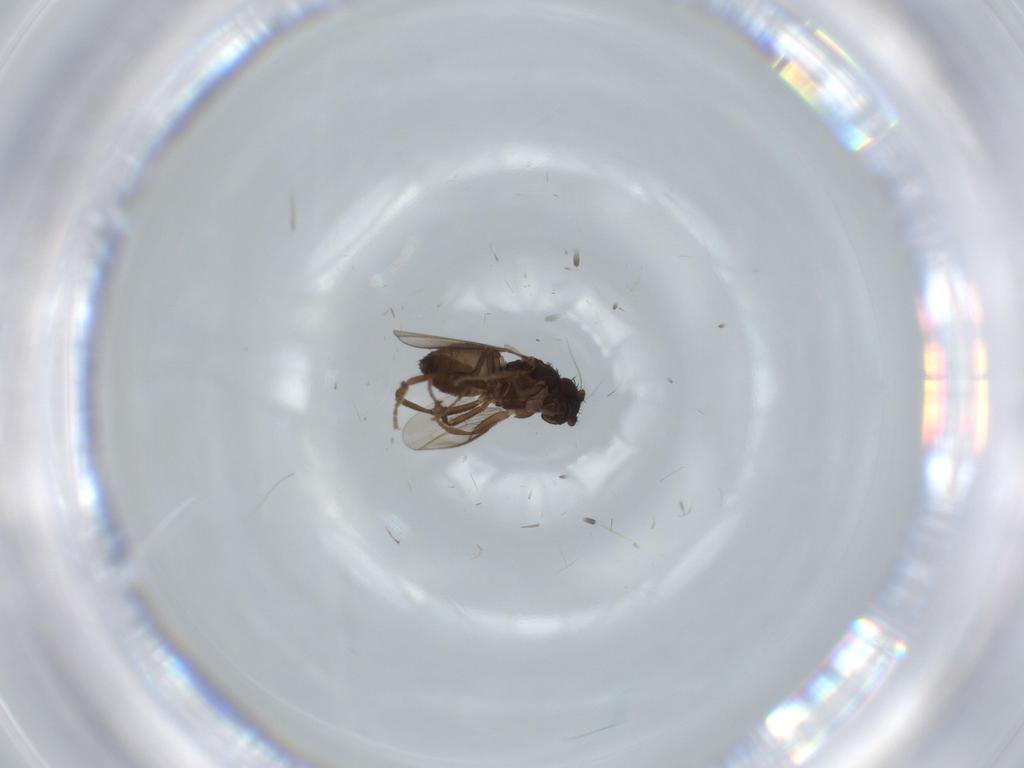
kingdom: Animalia
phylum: Arthropoda
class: Insecta
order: Diptera
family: Sphaeroceridae
